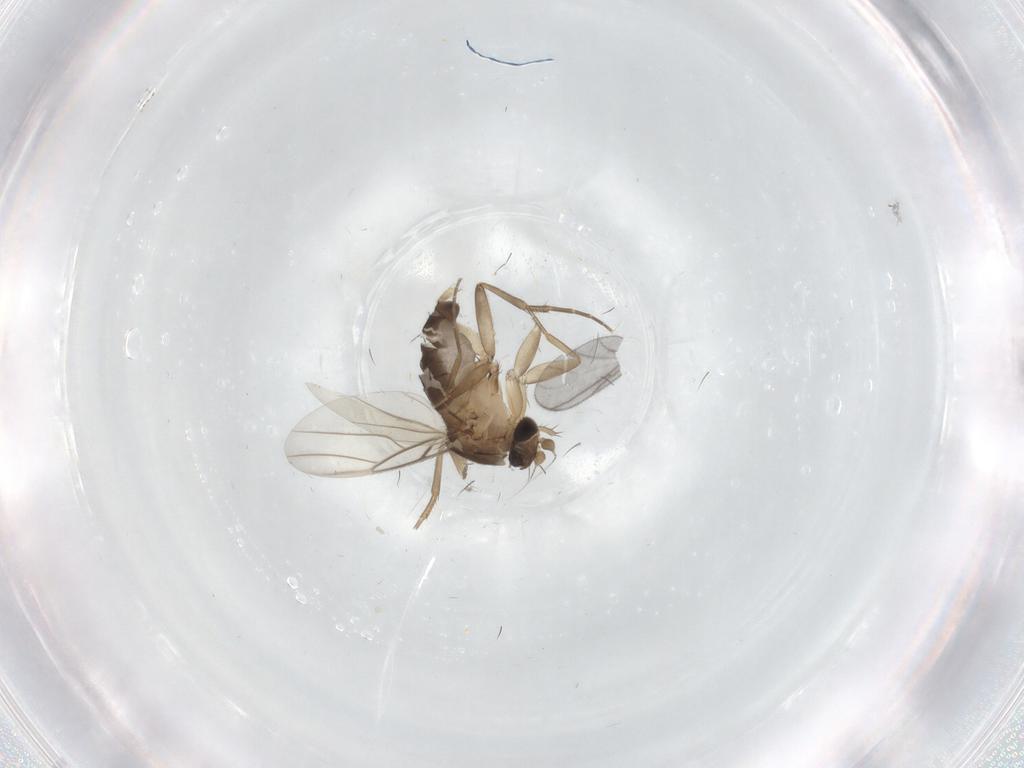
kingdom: Animalia
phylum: Arthropoda
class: Insecta
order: Diptera
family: Phoridae
